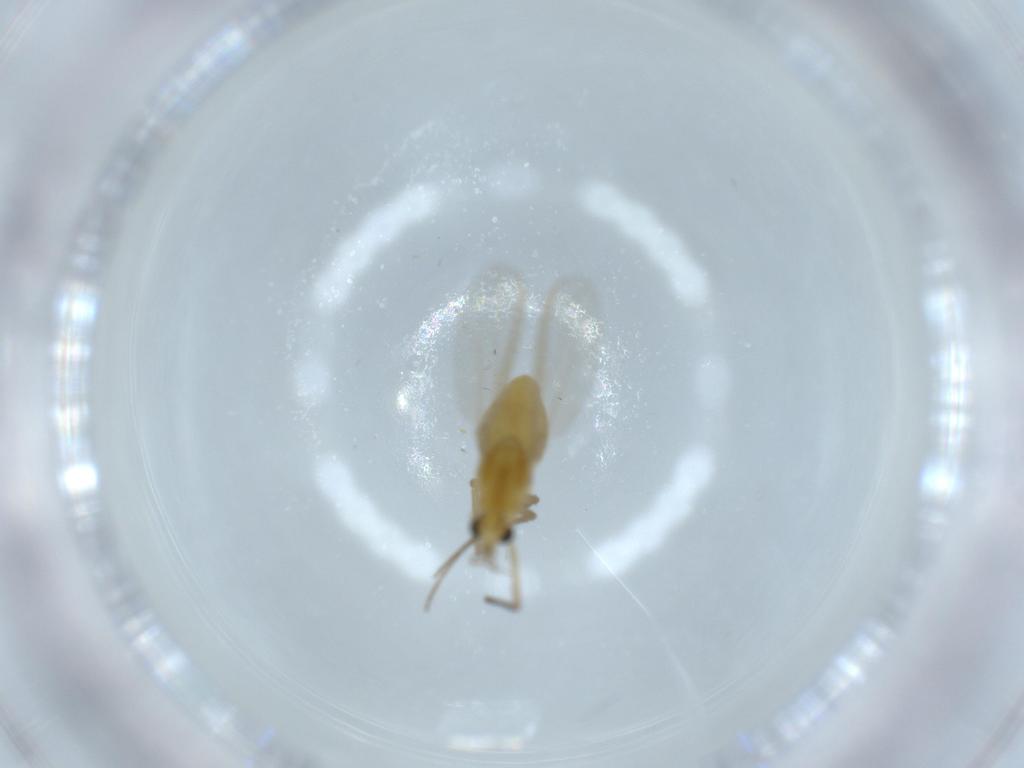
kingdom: Animalia
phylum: Arthropoda
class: Insecta
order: Diptera
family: Chironomidae
